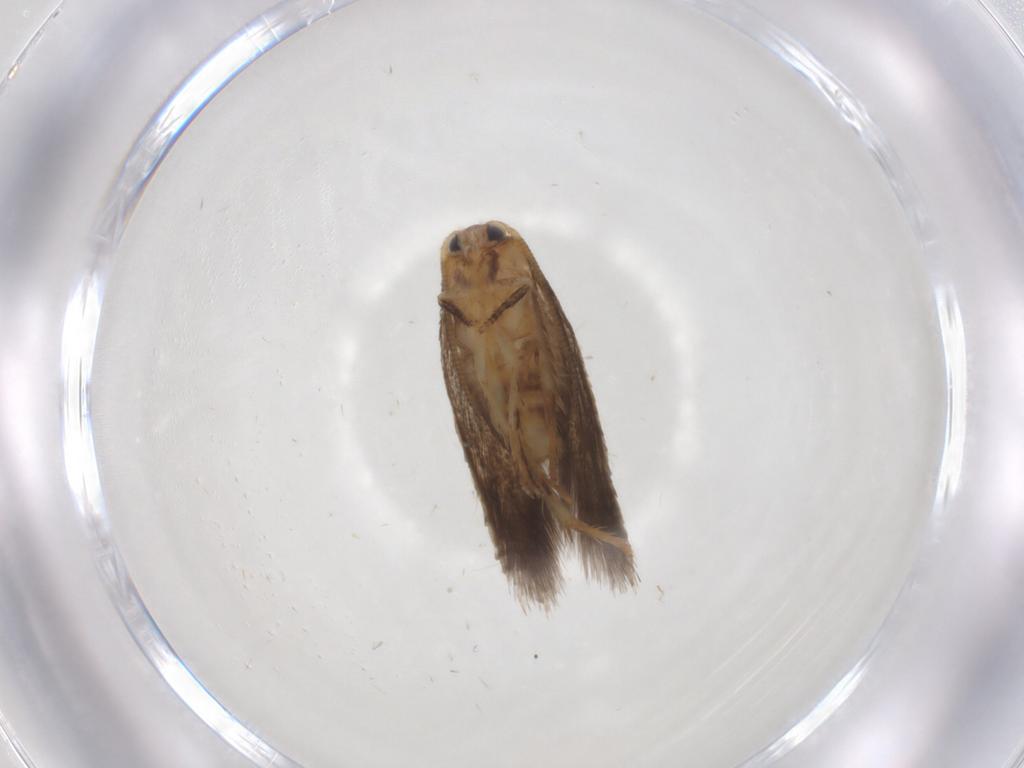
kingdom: Animalia
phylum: Arthropoda
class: Insecta
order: Lepidoptera
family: Nepticulidae
